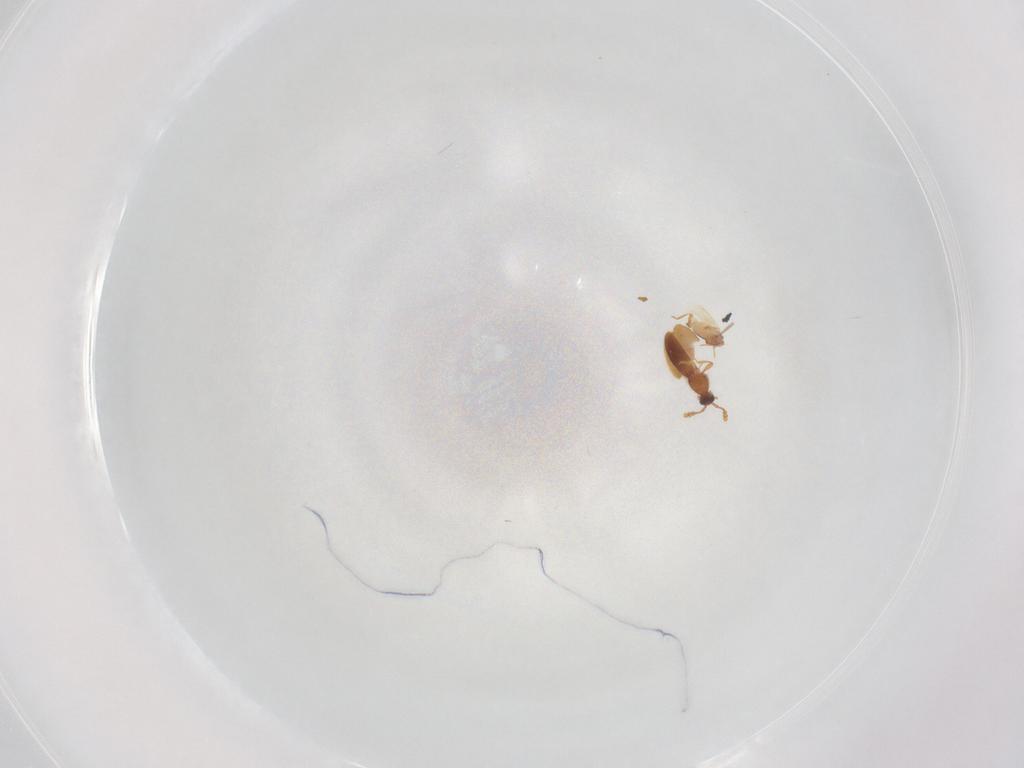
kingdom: Animalia
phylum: Arthropoda
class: Insecta
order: Coleoptera
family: Staphylinidae
